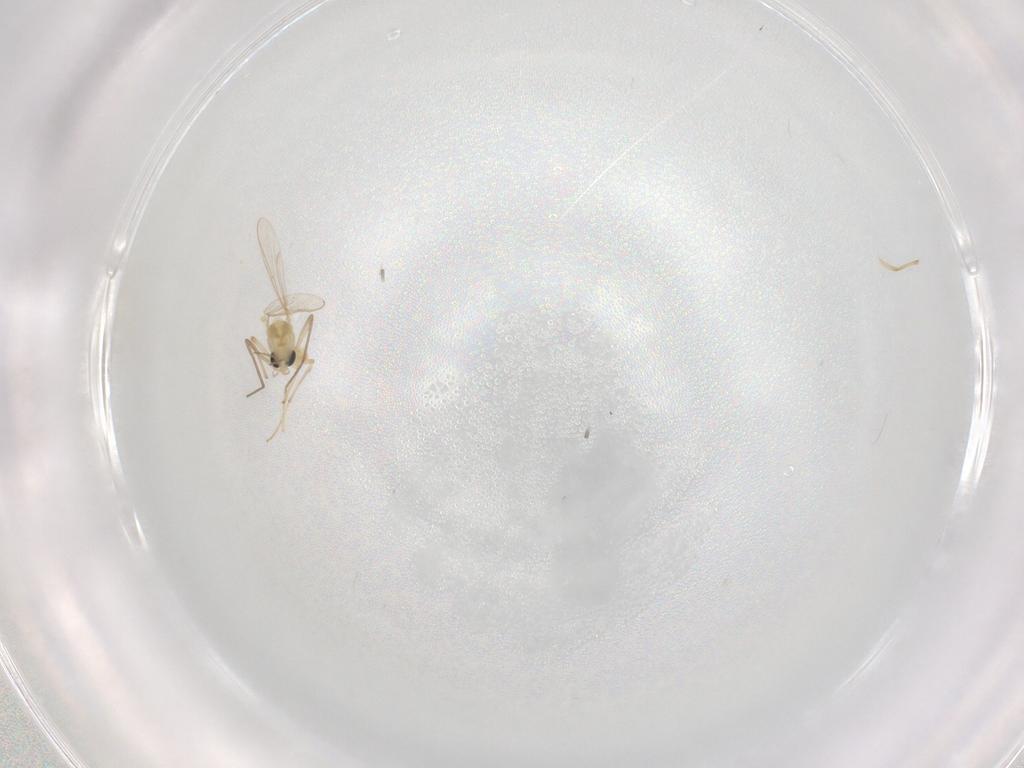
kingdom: Animalia
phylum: Arthropoda
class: Insecta
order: Diptera
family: Chironomidae
